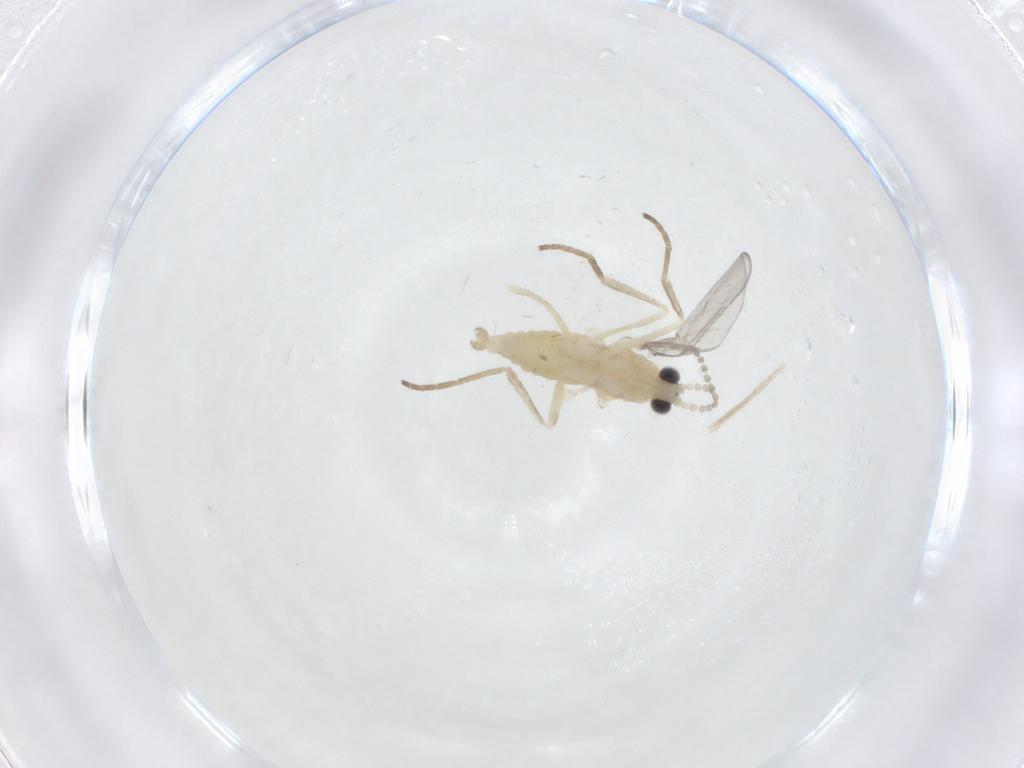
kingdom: Animalia
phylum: Arthropoda
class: Insecta
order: Diptera
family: Cecidomyiidae
